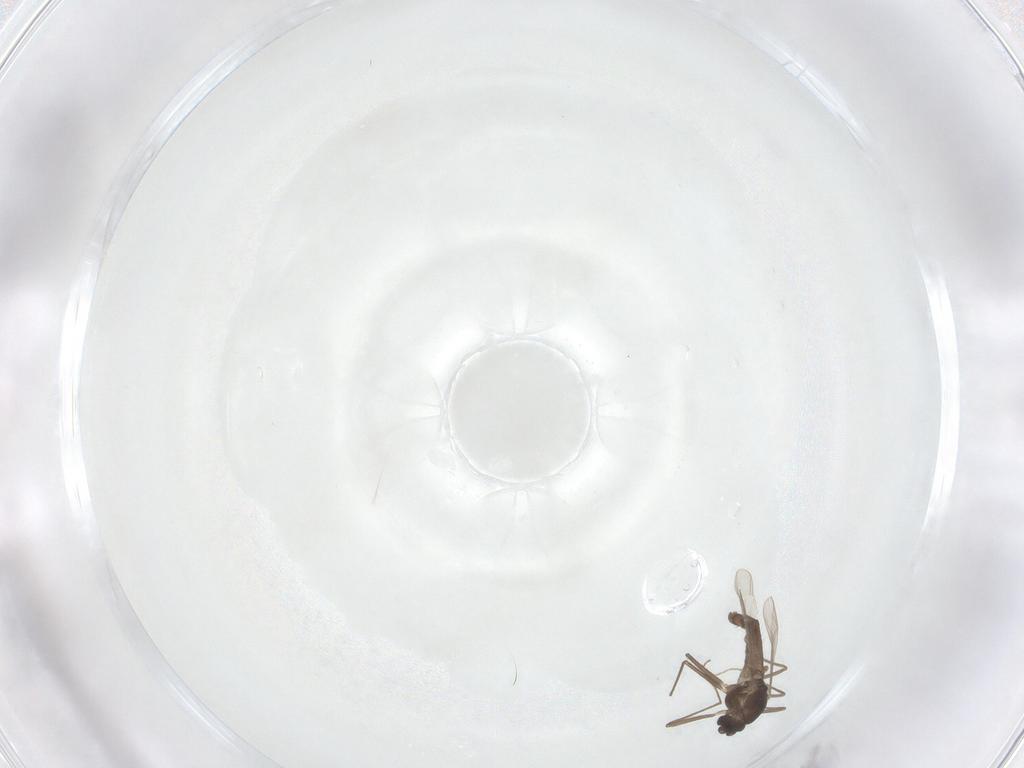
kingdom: Animalia
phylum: Arthropoda
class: Insecta
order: Diptera
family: Chironomidae
